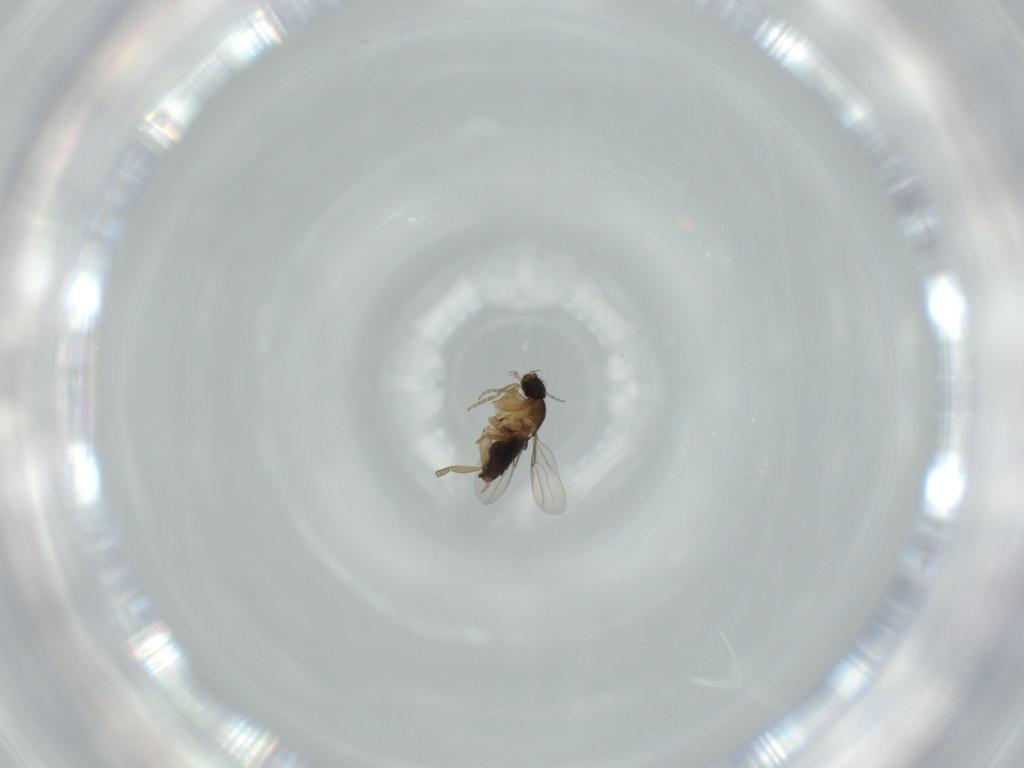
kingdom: Animalia
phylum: Arthropoda
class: Insecta
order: Diptera
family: Phoridae
